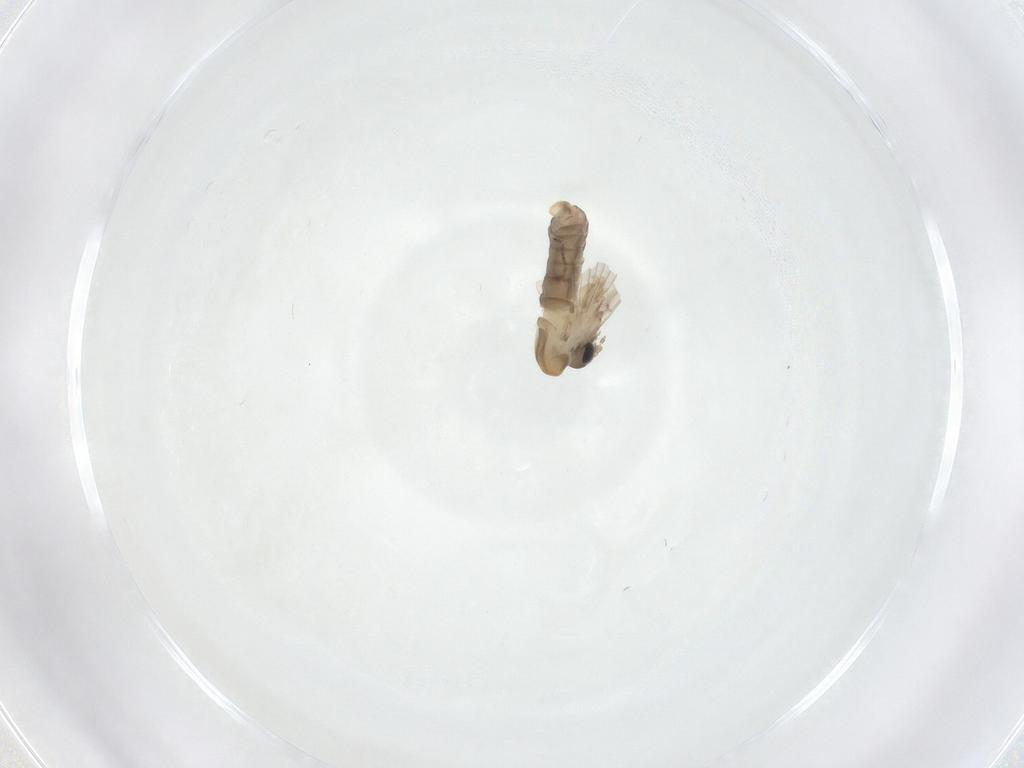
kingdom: Animalia
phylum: Arthropoda
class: Insecta
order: Diptera
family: Psychodidae
